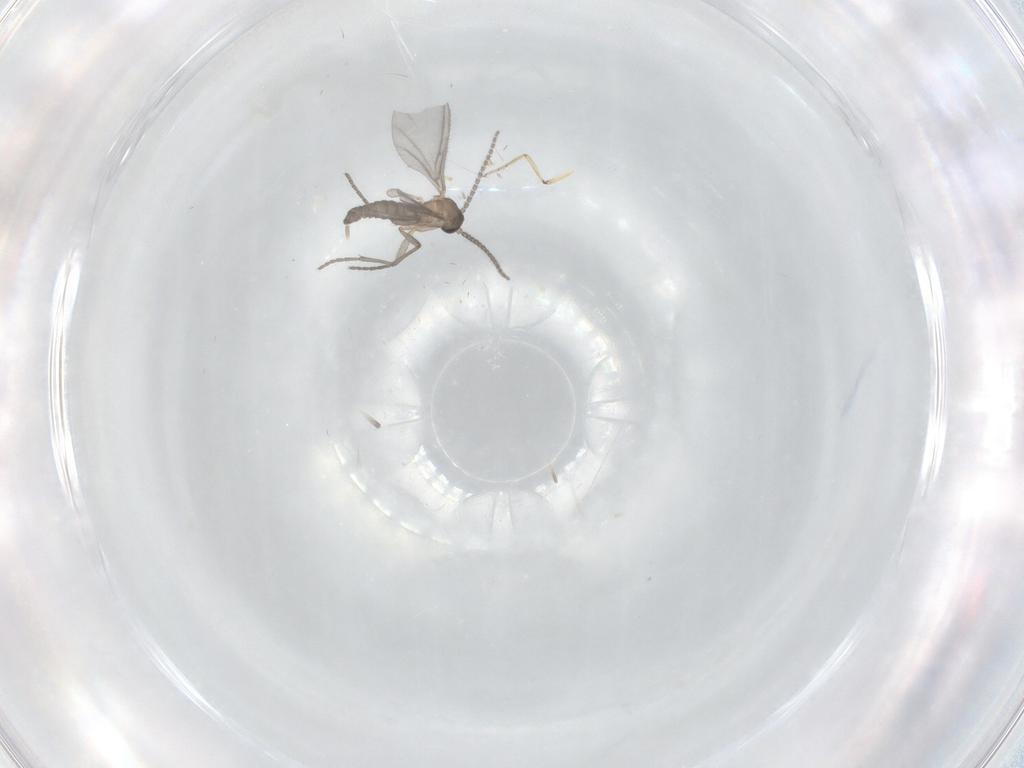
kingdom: Animalia
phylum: Arthropoda
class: Insecta
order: Diptera
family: Sciaridae
